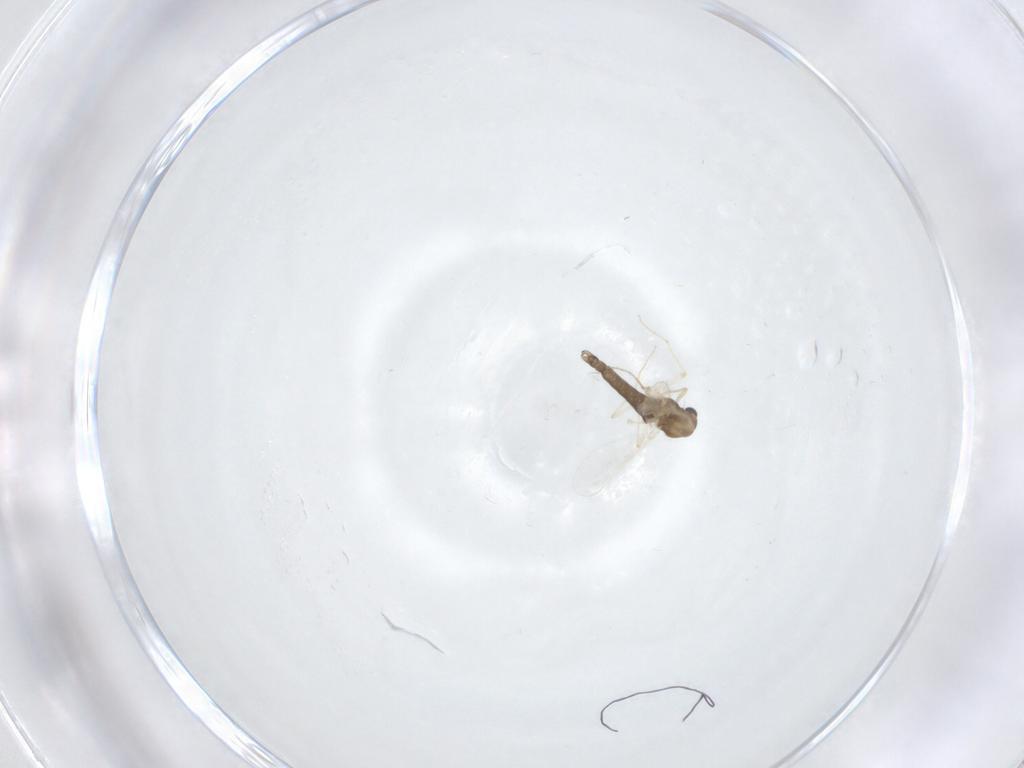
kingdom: Animalia
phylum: Arthropoda
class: Insecta
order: Diptera
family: Chironomidae
